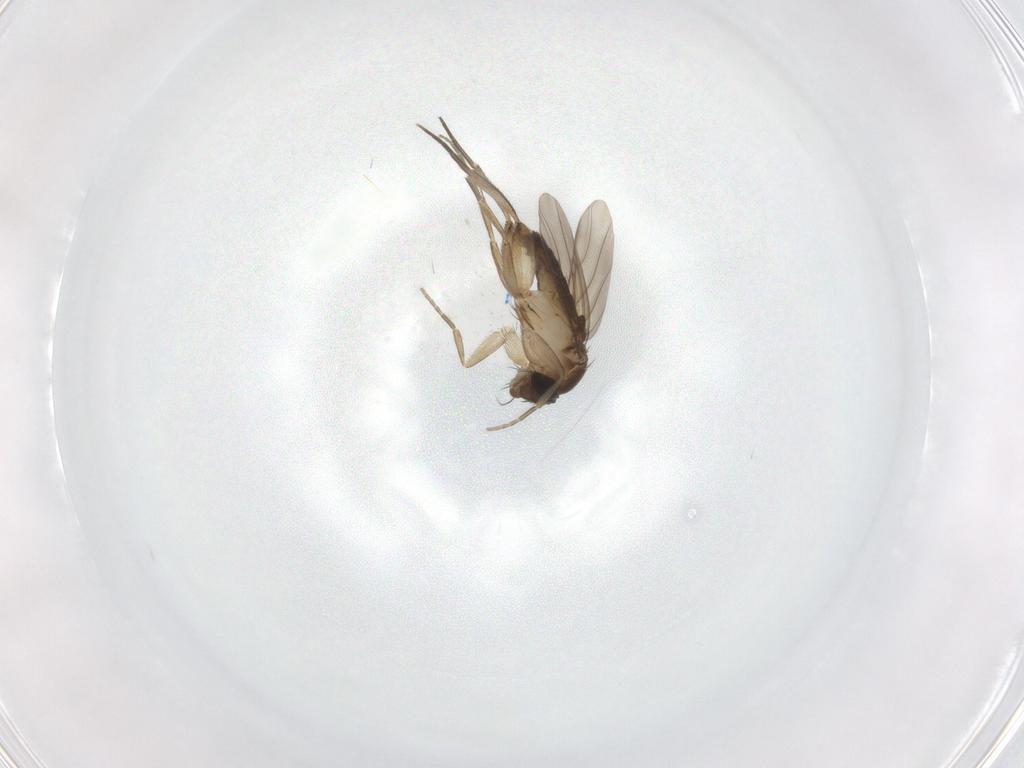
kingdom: Animalia
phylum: Arthropoda
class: Insecta
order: Diptera
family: Phoridae
